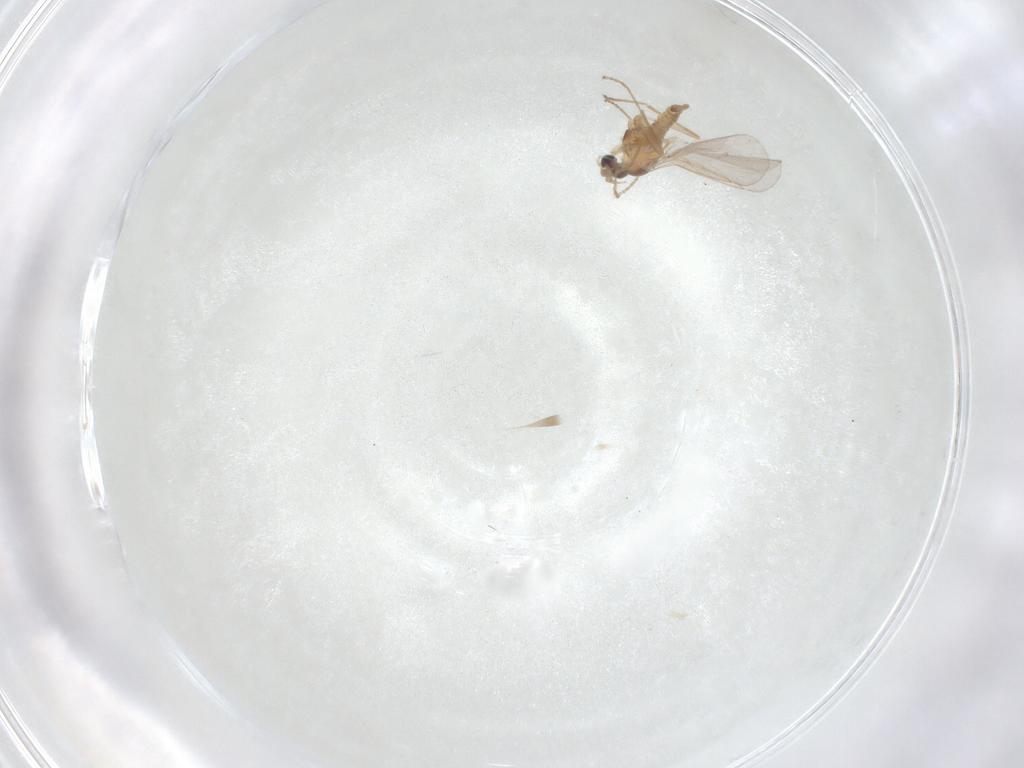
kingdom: Animalia
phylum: Arthropoda
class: Insecta
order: Diptera
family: Cecidomyiidae
